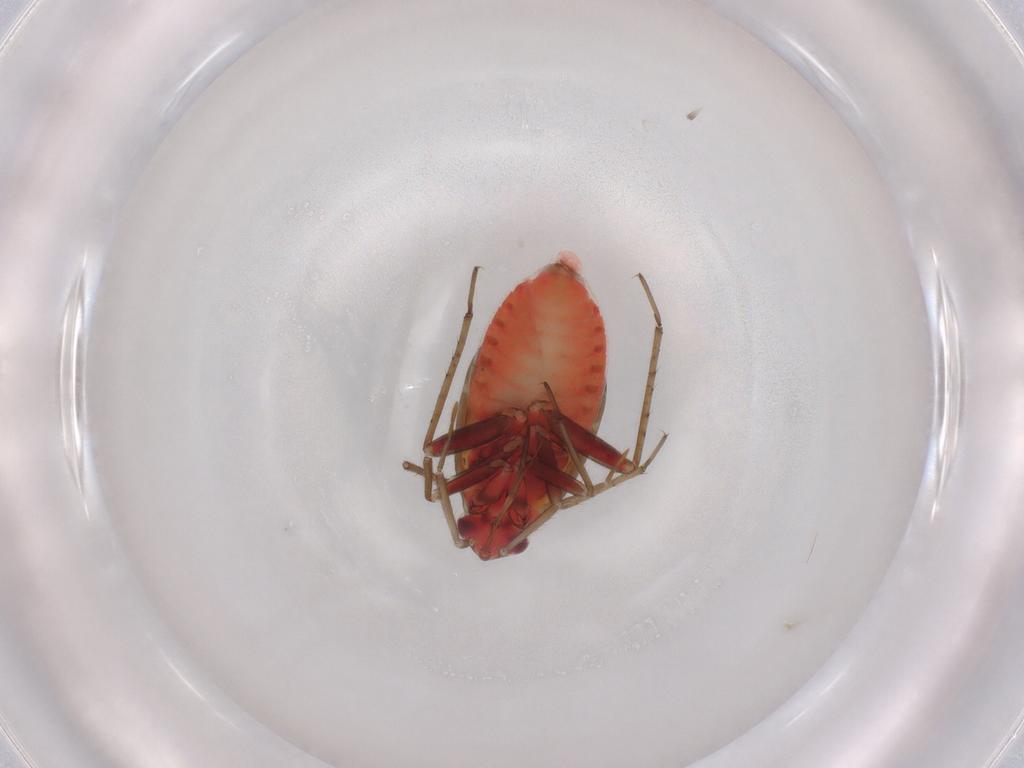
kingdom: Animalia
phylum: Arthropoda
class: Insecta
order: Hemiptera
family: Miridae
